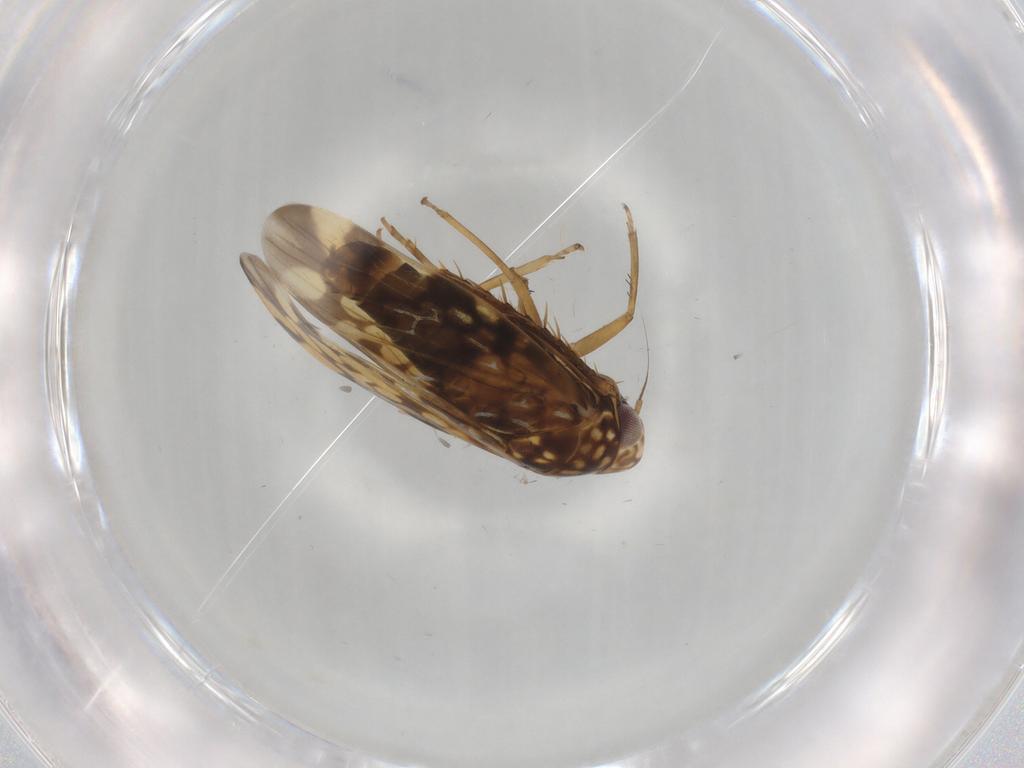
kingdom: Animalia
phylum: Arthropoda
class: Insecta
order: Hemiptera
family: Cicadellidae
